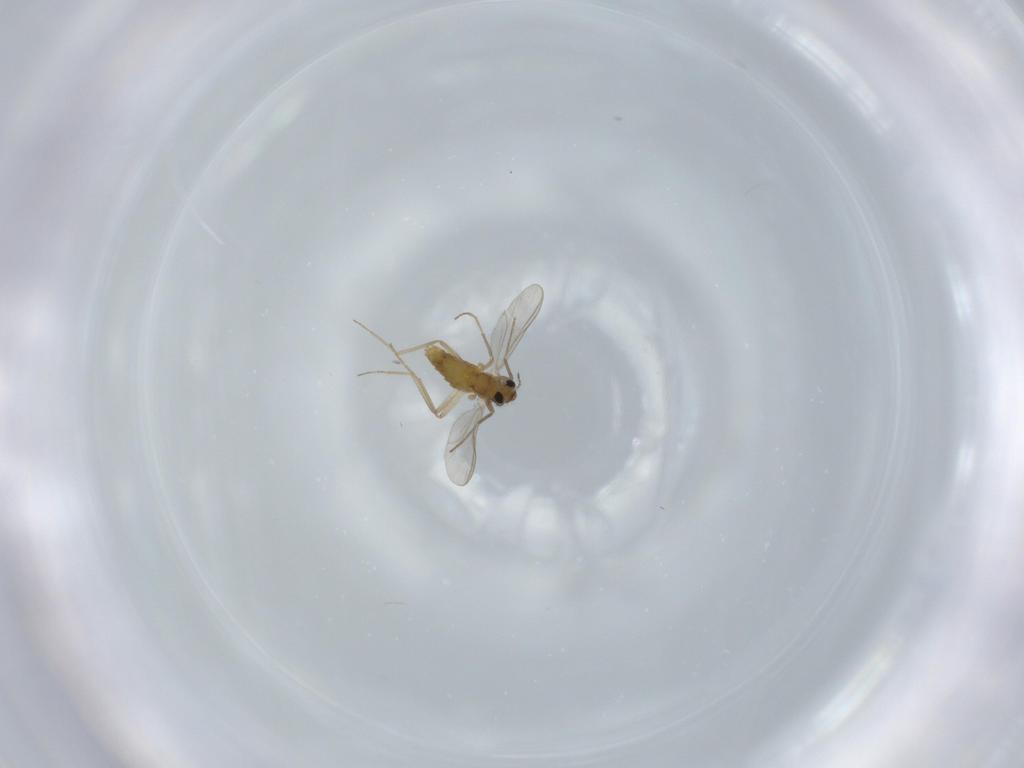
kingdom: Animalia
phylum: Arthropoda
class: Insecta
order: Diptera
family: Chironomidae
